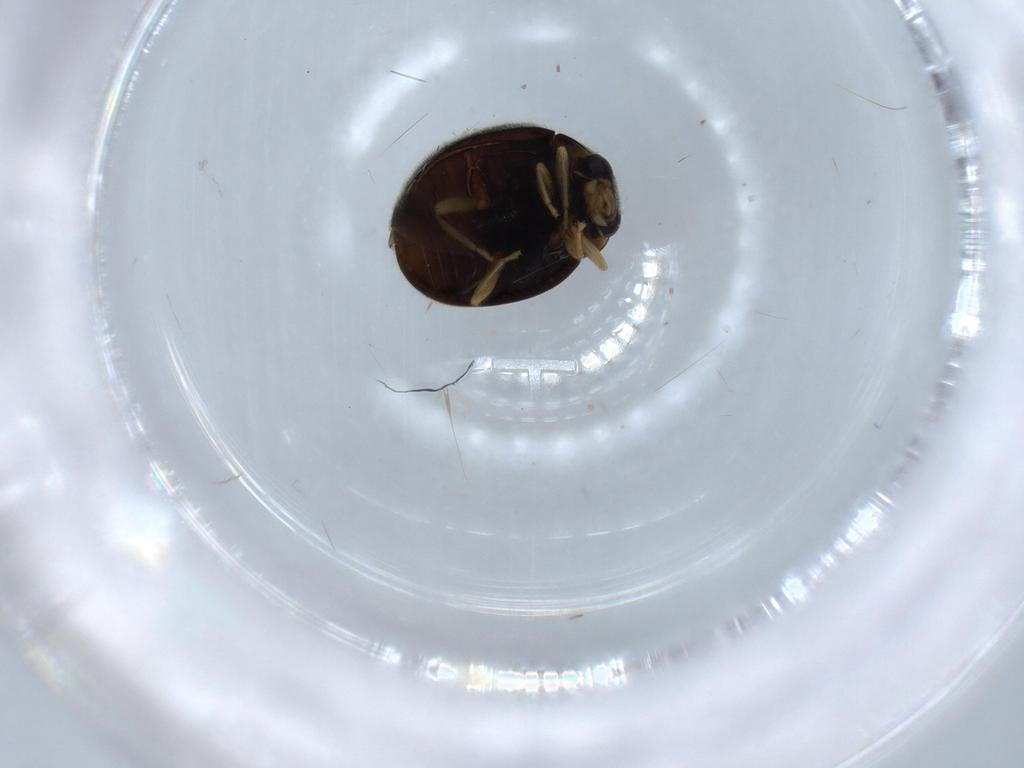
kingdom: Animalia
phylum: Arthropoda
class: Insecta
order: Coleoptera
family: Coccinellidae
